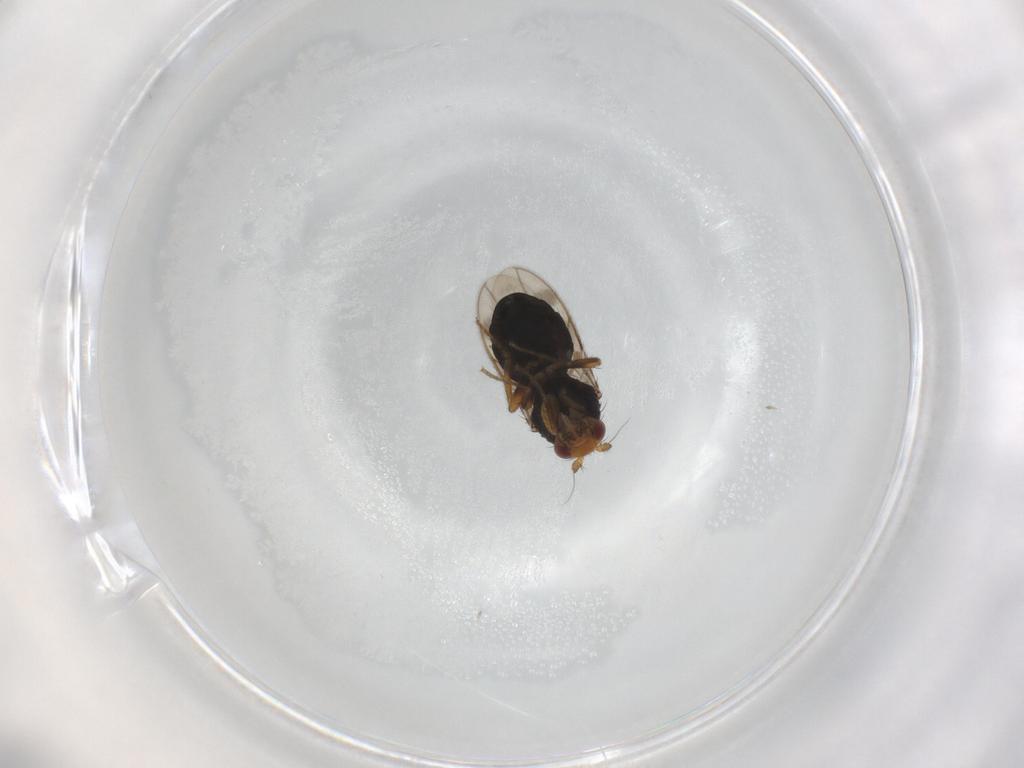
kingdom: Animalia
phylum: Arthropoda
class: Insecta
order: Diptera
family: Sphaeroceridae
